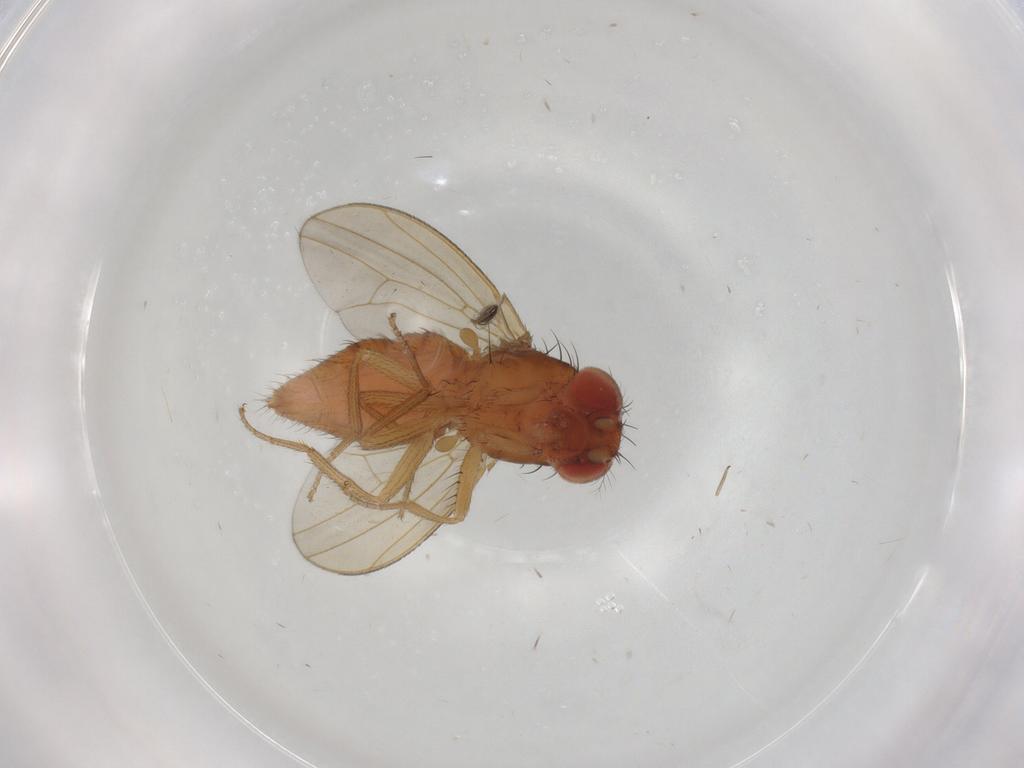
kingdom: Animalia
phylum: Arthropoda
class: Insecta
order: Diptera
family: Drosophilidae
